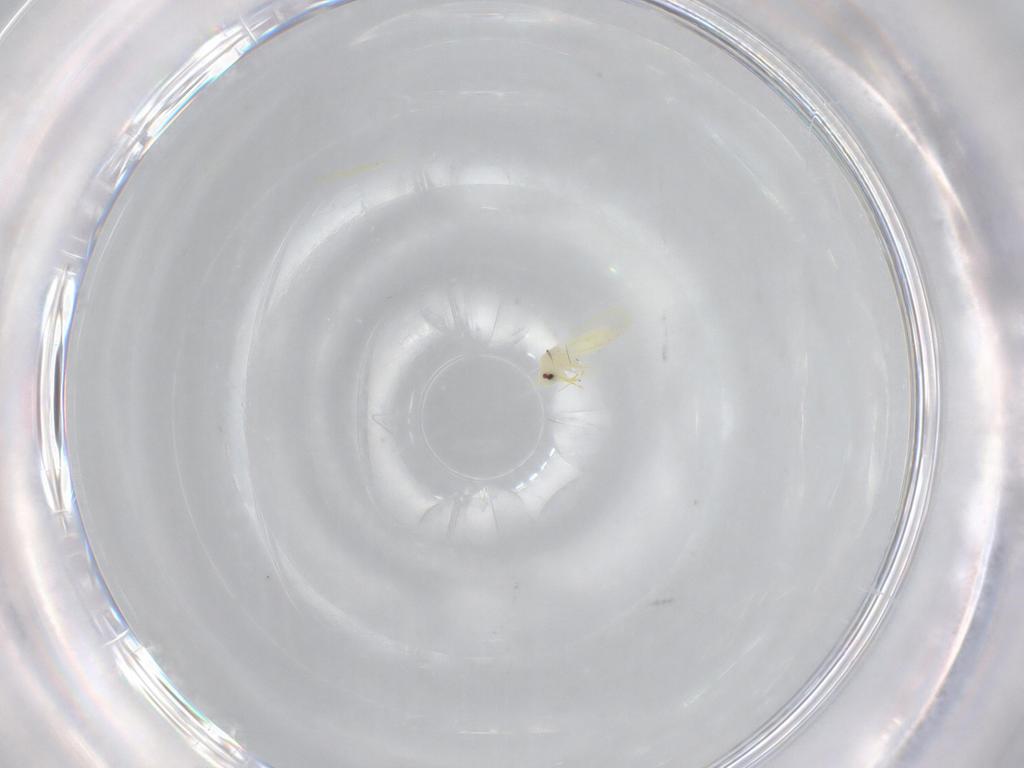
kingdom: Animalia
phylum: Arthropoda
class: Insecta
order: Hemiptera
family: Aleyrodidae
